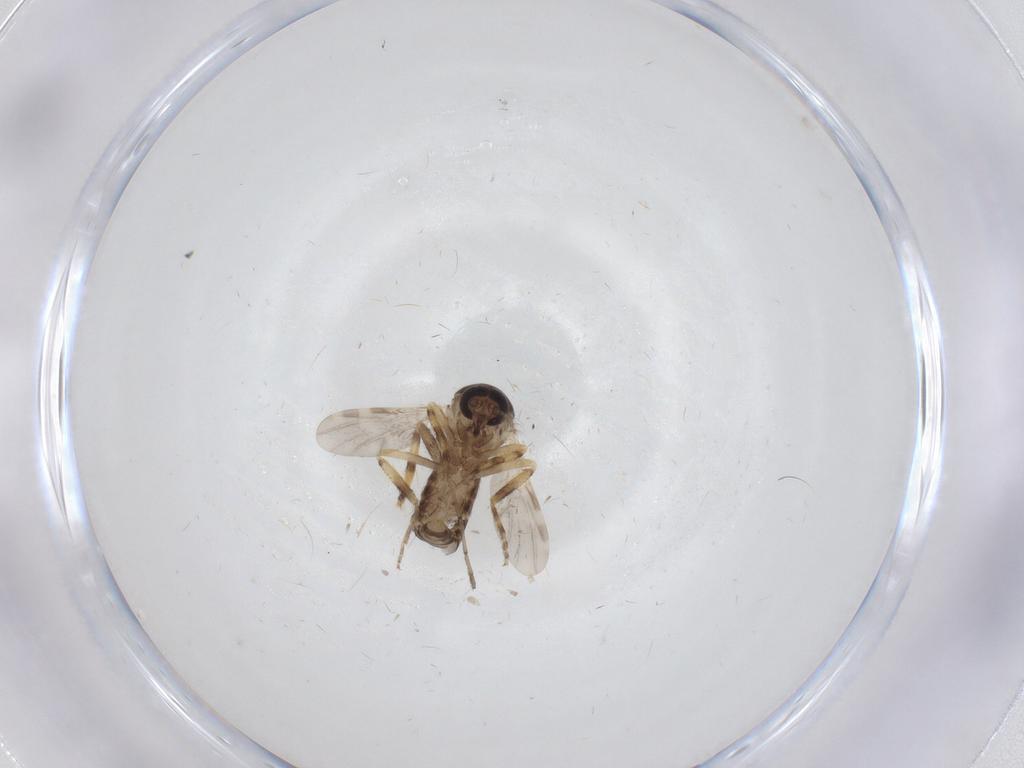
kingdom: Animalia
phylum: Arthropoda
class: Insecta
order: Diptera
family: Ceratopogonidae
